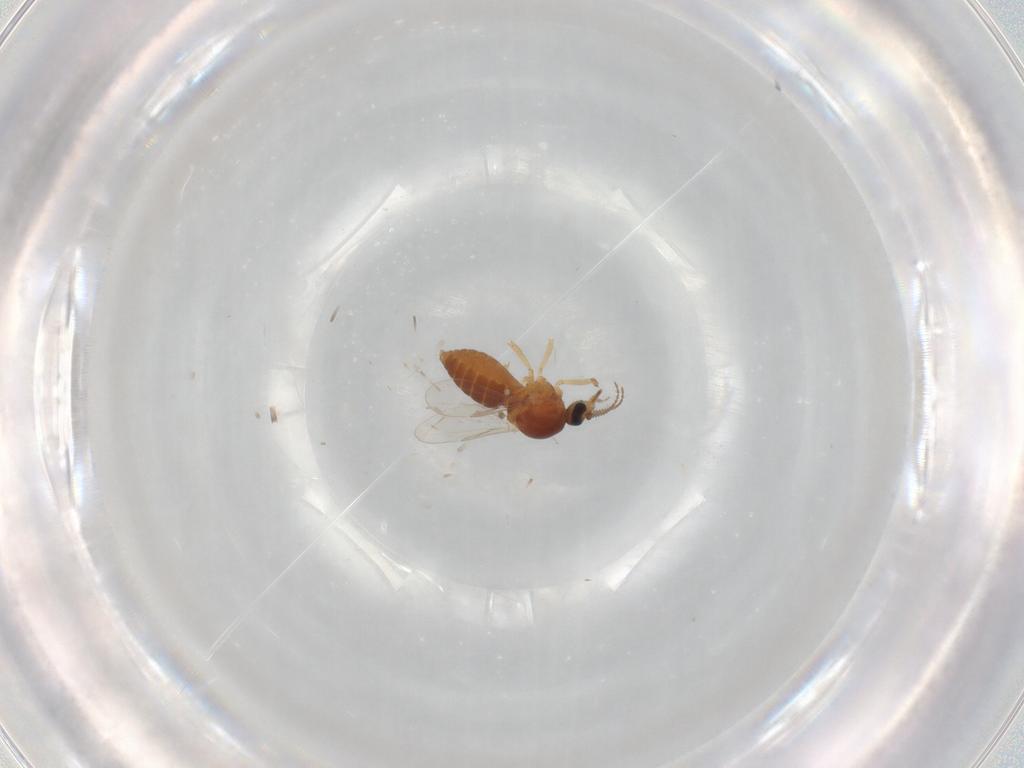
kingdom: Animalia
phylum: Arthropoda
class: Insecta
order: Diptera
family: Ceratopogonidae
